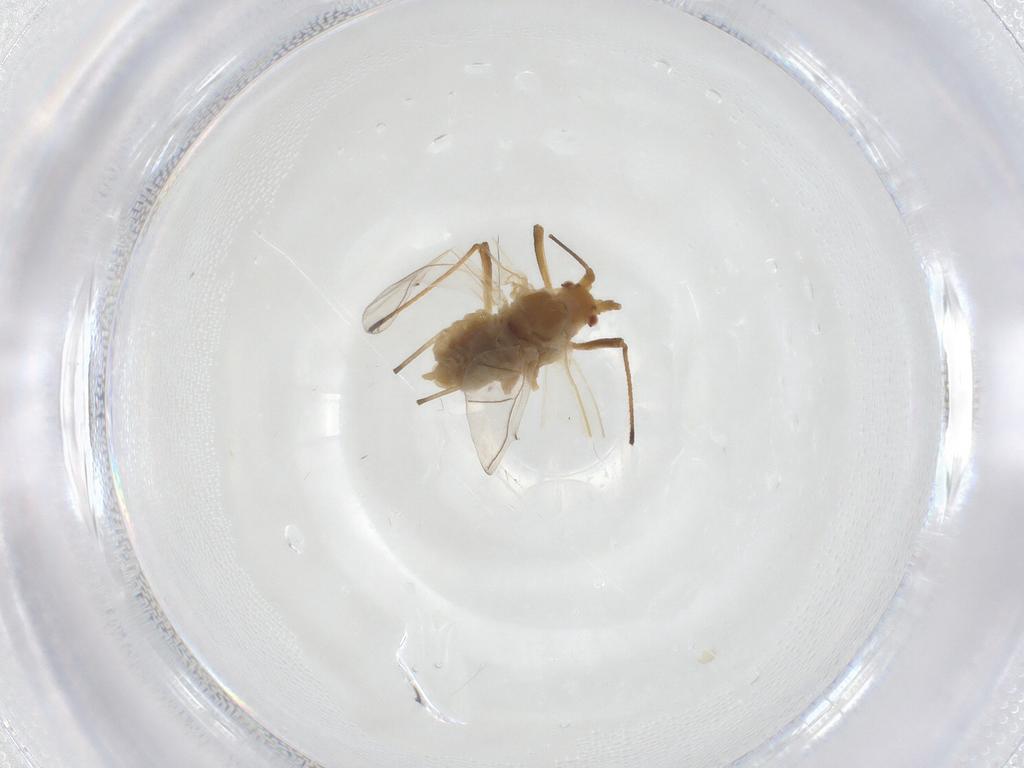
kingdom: Animalia
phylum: Arthropoda
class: Insecta
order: Hemiptera
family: Aphididae
